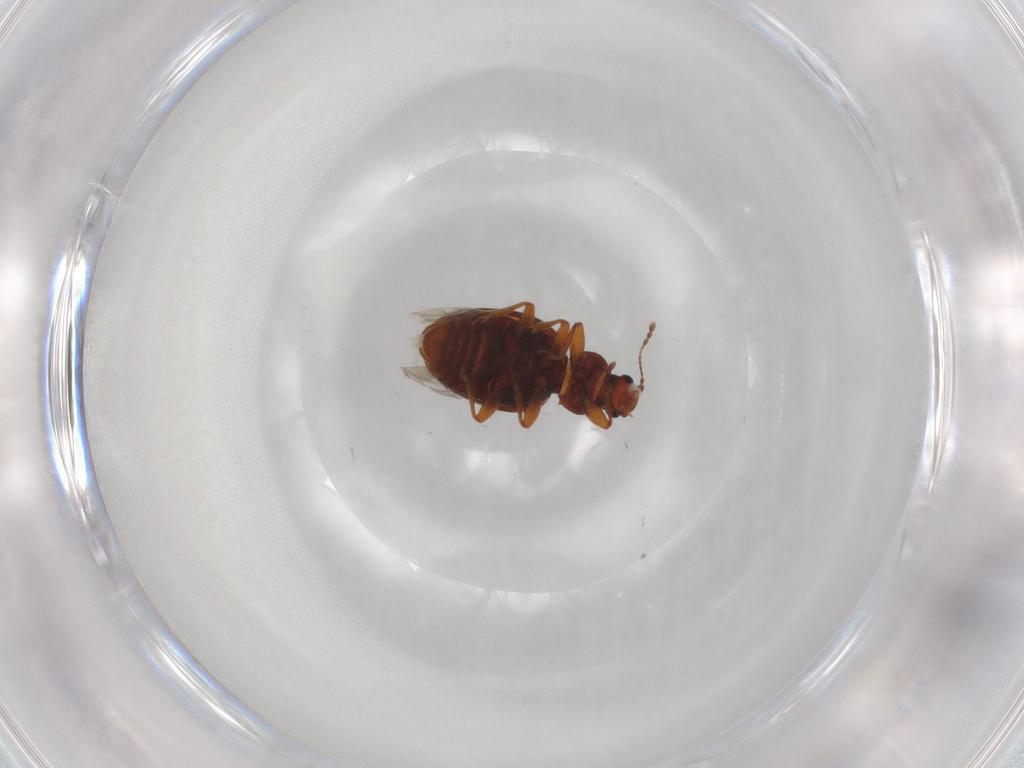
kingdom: Animalia
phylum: Arthropoda
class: Insecta
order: Coleoptera
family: Latridiidae
